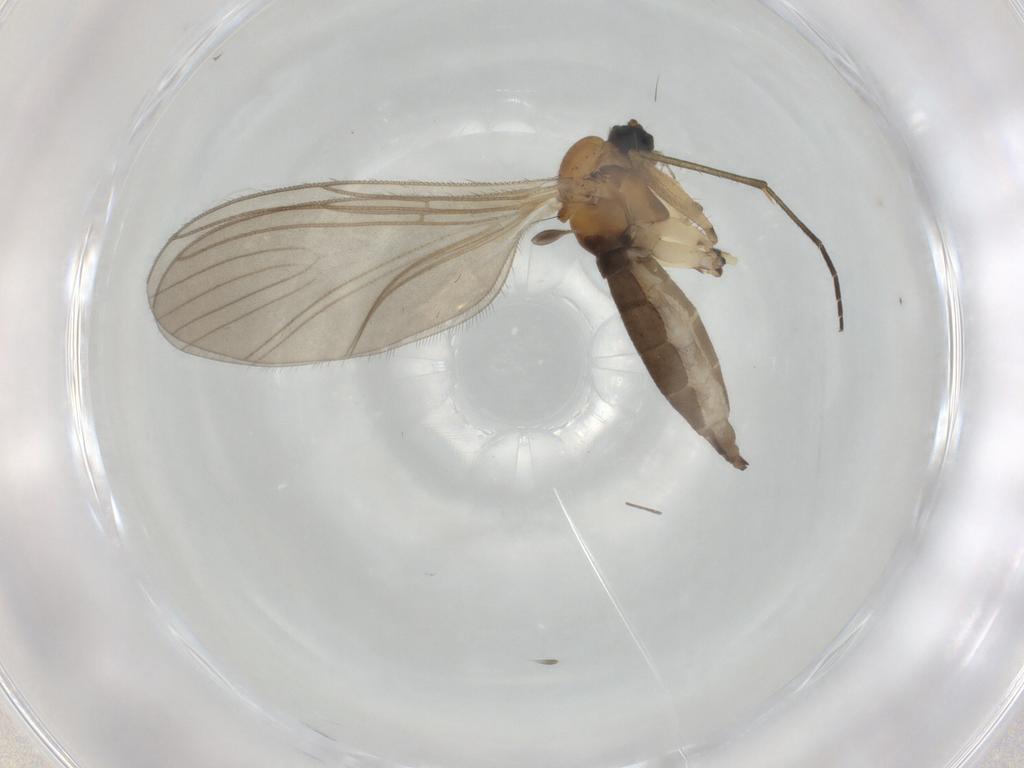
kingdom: Animalia
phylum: Arthropoda
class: Insecta
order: Diptera
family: Sciaridae
